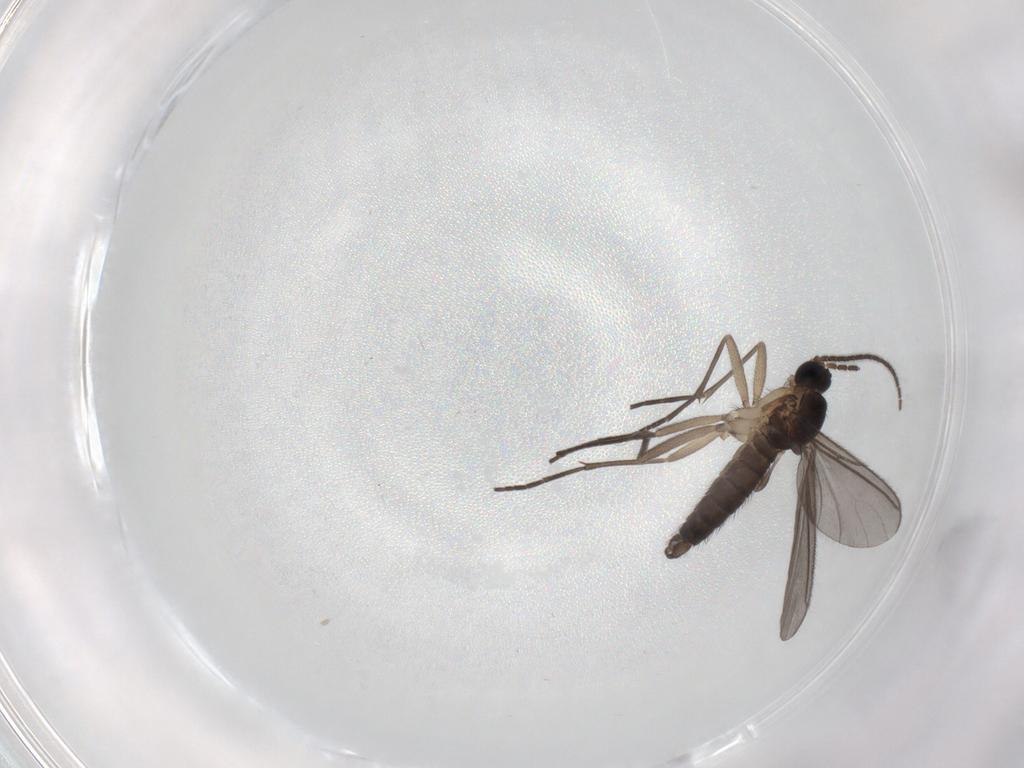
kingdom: Animalia
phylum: Arthropoda
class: Insecta
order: Diptera
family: Sciaridae
